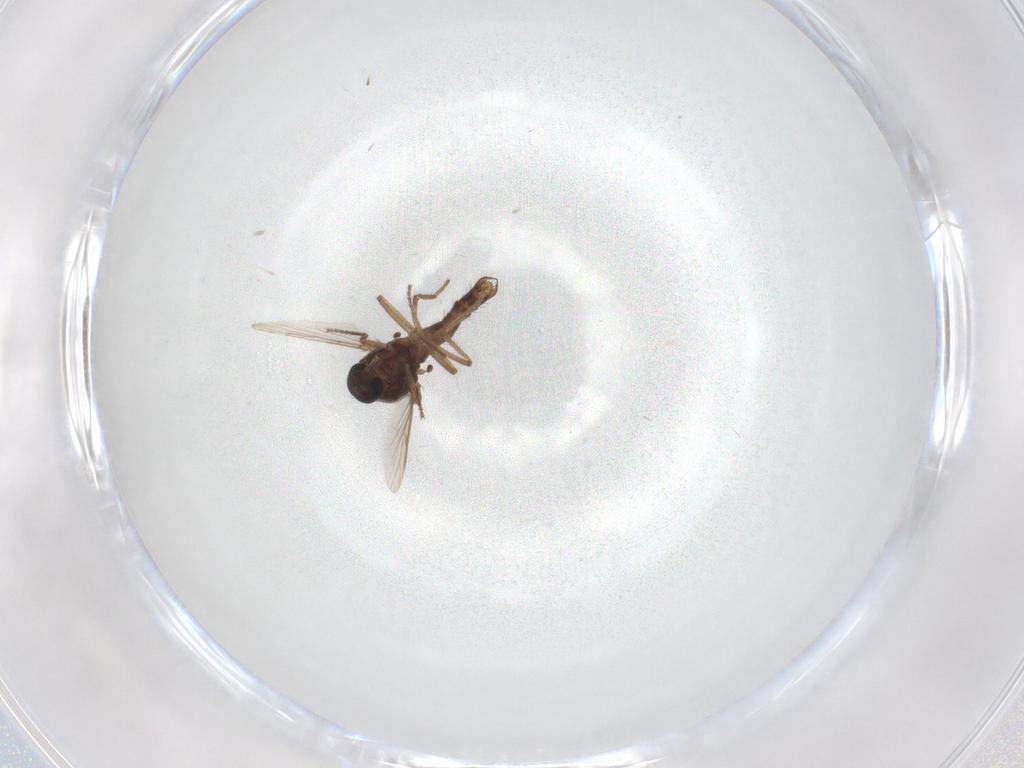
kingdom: Animalia
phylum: Arthropoda
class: Insecta
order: Diptera
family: Ceratopogonidae
